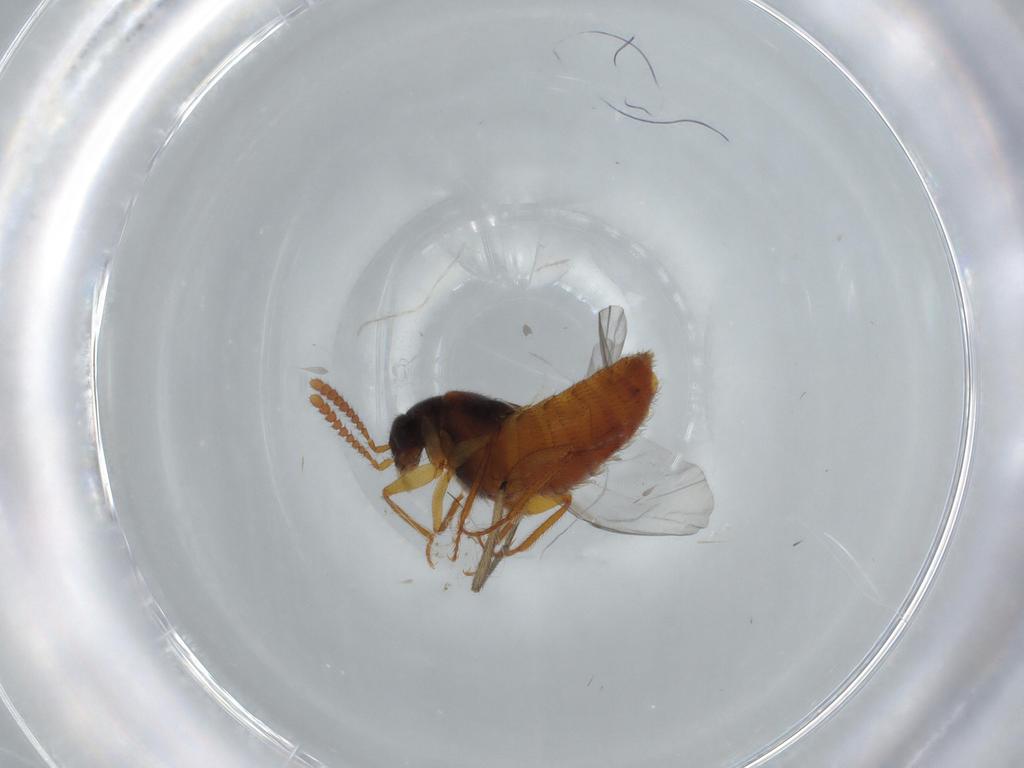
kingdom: Animalia
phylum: Arthropoda
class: Insecta
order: Coleoptera
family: Staphylinidae
